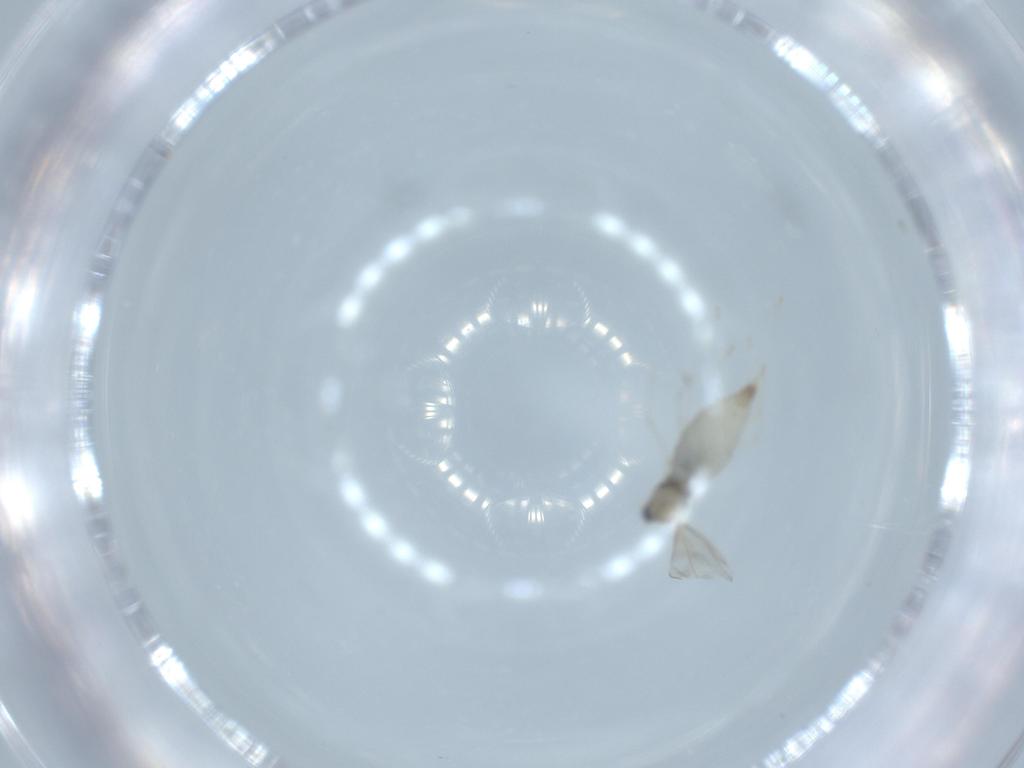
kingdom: Animalia
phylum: Arthropoda
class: Insecta
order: Diptera
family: Cecidomyiidae
